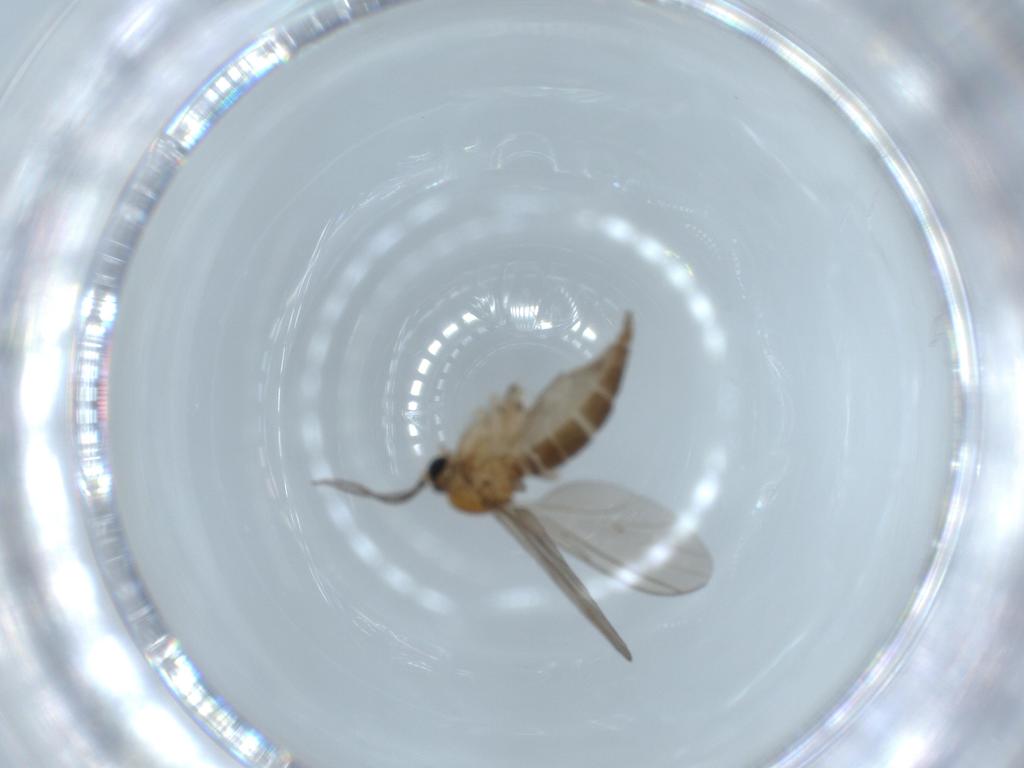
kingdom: Animalia
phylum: Arthropoda
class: Insecta
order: Diptera
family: Sciaridae
